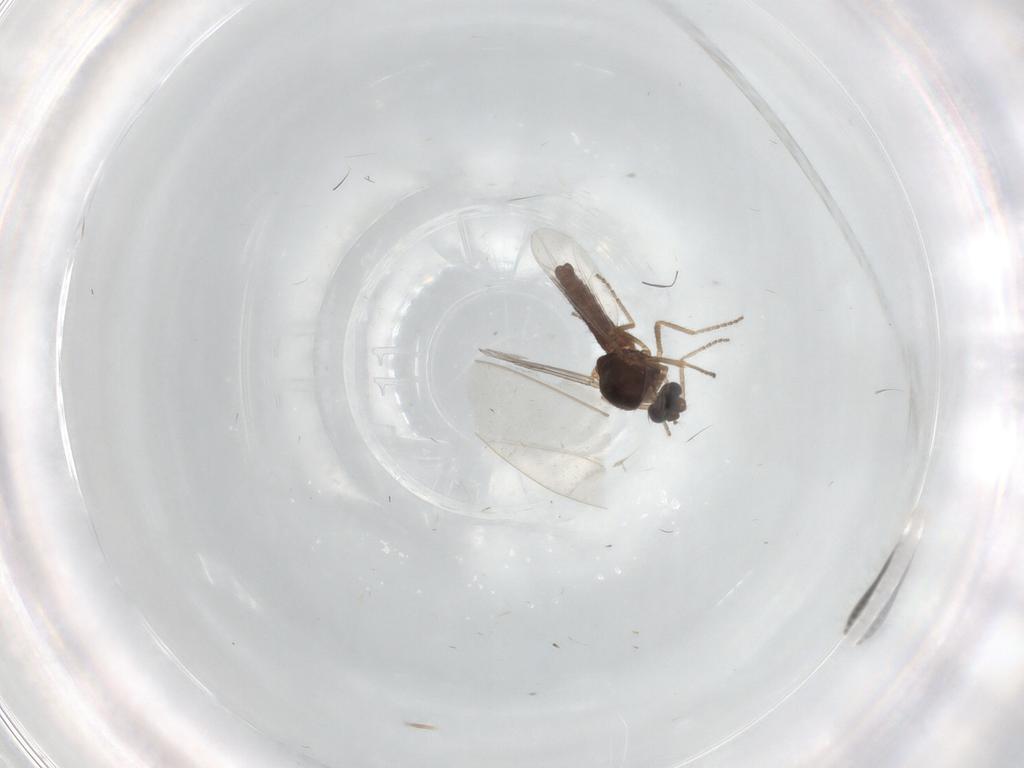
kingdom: Animalia
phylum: Arthropoda
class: Insecta
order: Diptera
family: Ceratopogonidae
